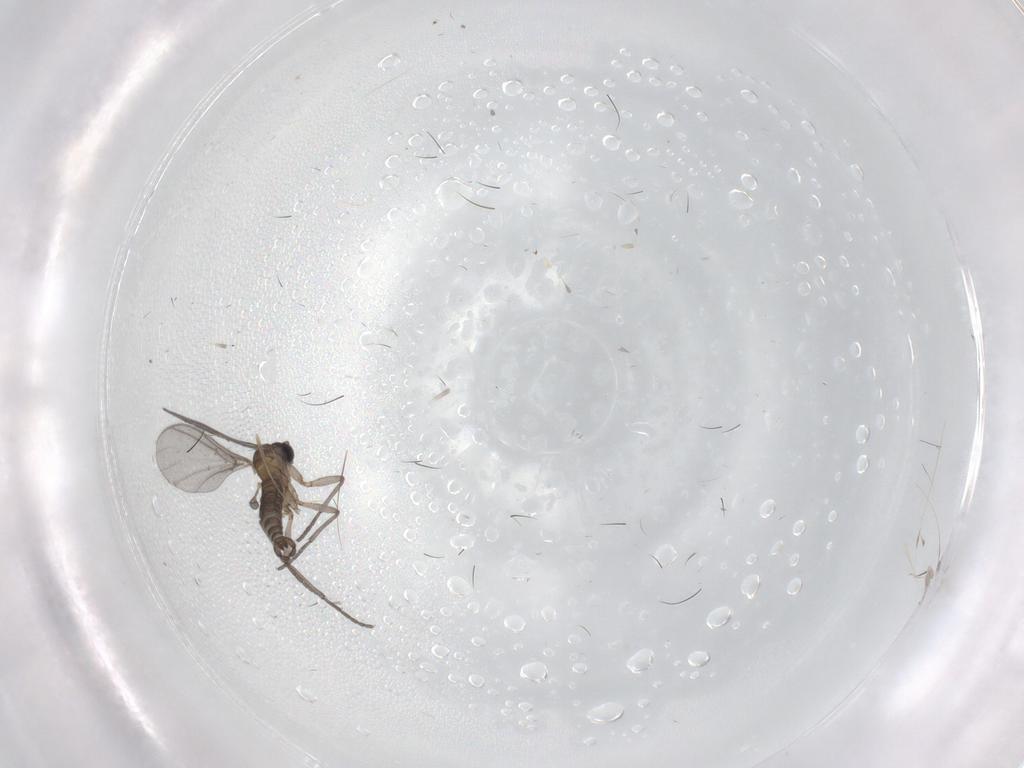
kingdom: Animalia
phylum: Arthropoda
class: Insecta
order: Diptera
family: Sciaridae
